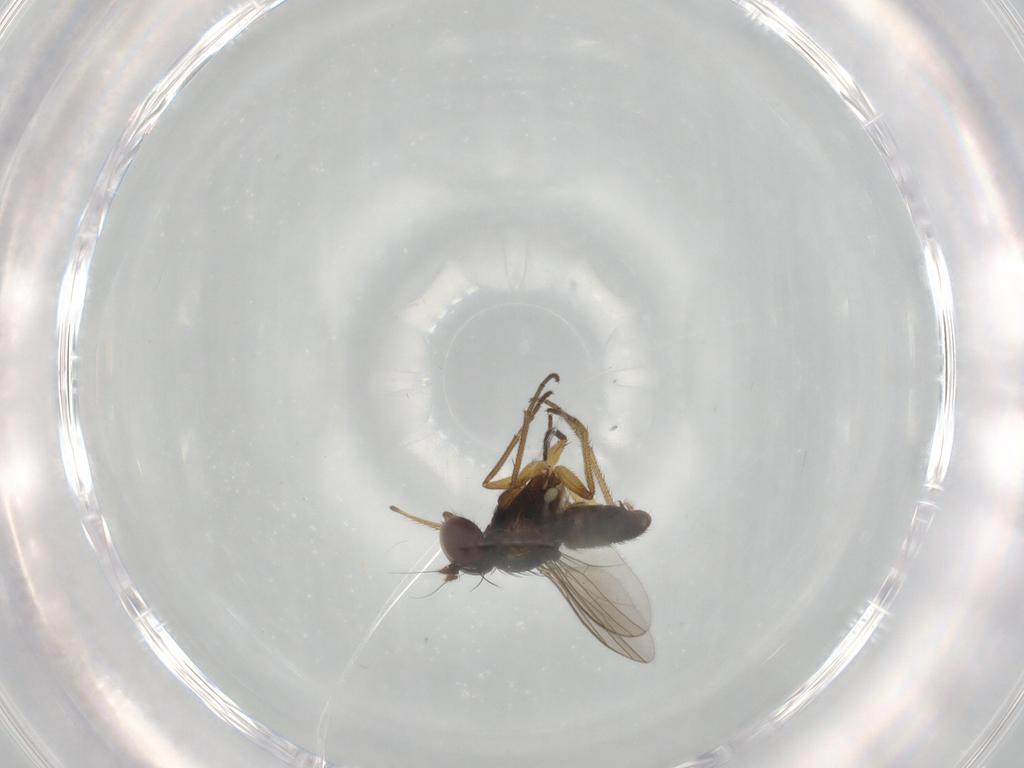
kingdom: Animalia
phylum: Arthropoda
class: Insecta
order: Diptera
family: Dolichopodidae
